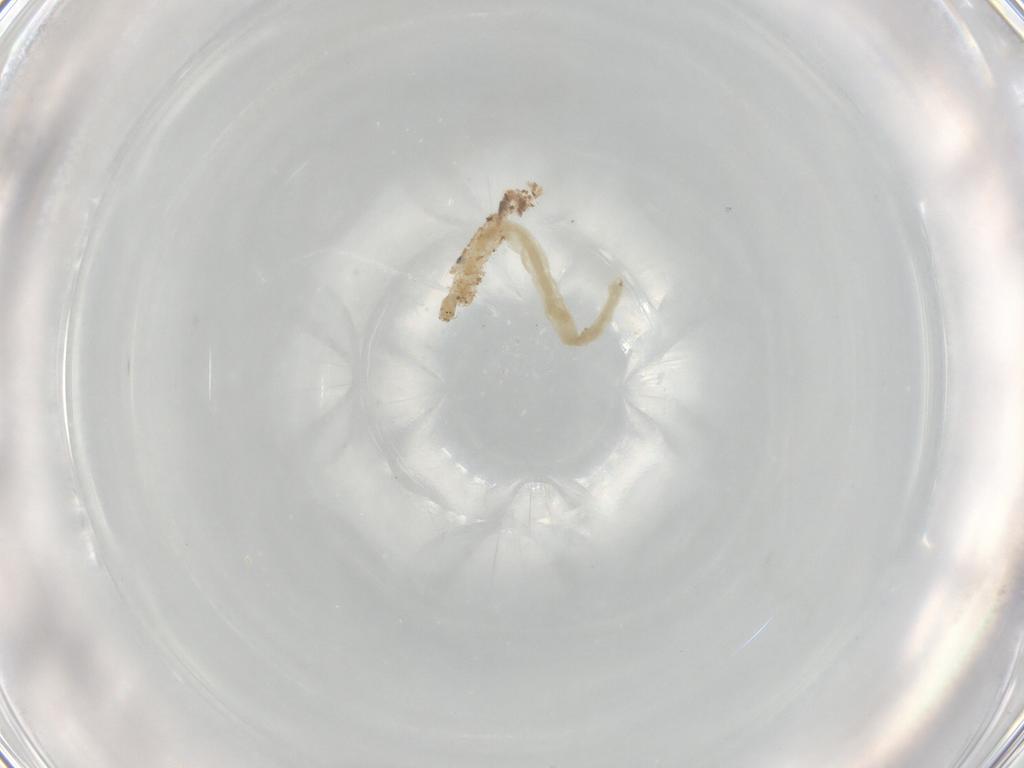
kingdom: Animalia
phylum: Arthropoda
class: Insecta
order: Diptera
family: Chironomidae
